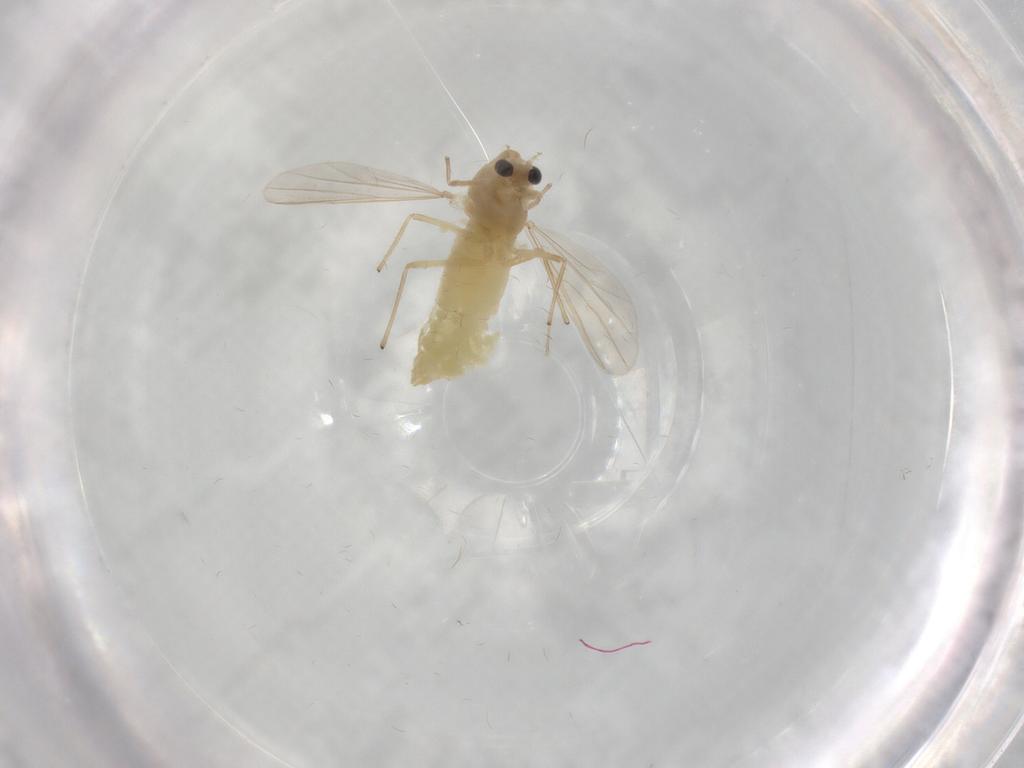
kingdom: Animalia
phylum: Arthropoda
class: Insecta
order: Diptera
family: Chironomidae
